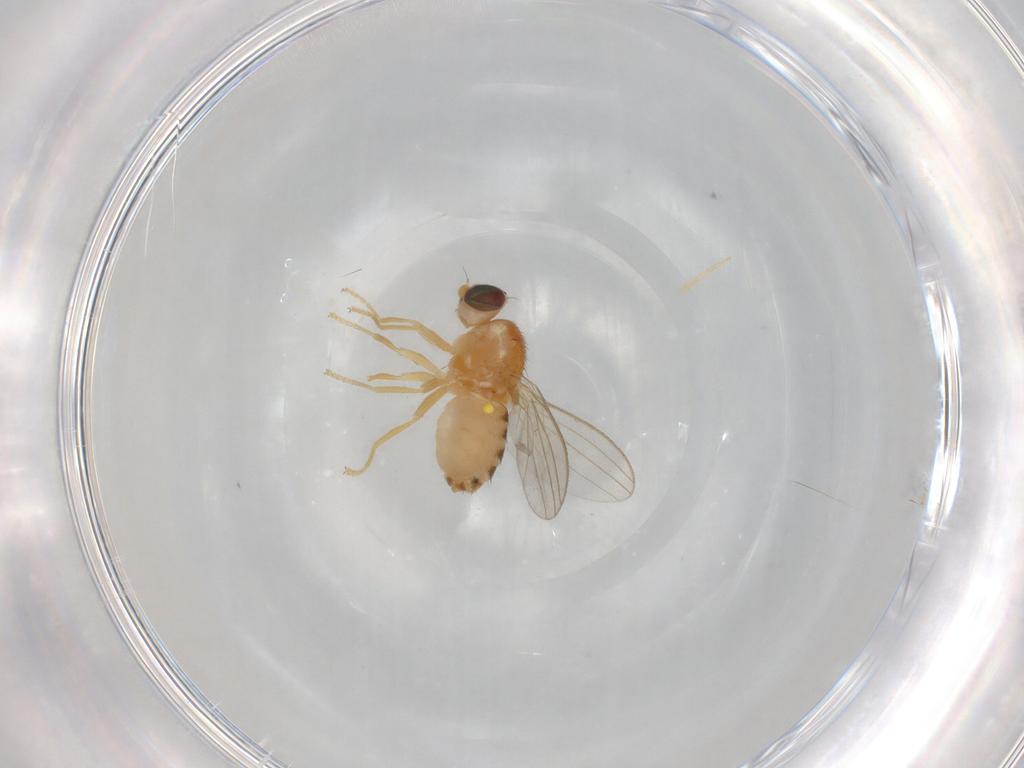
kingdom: Animalia
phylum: Arthropoda
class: Insecta
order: Diptera
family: Chyromyidae
